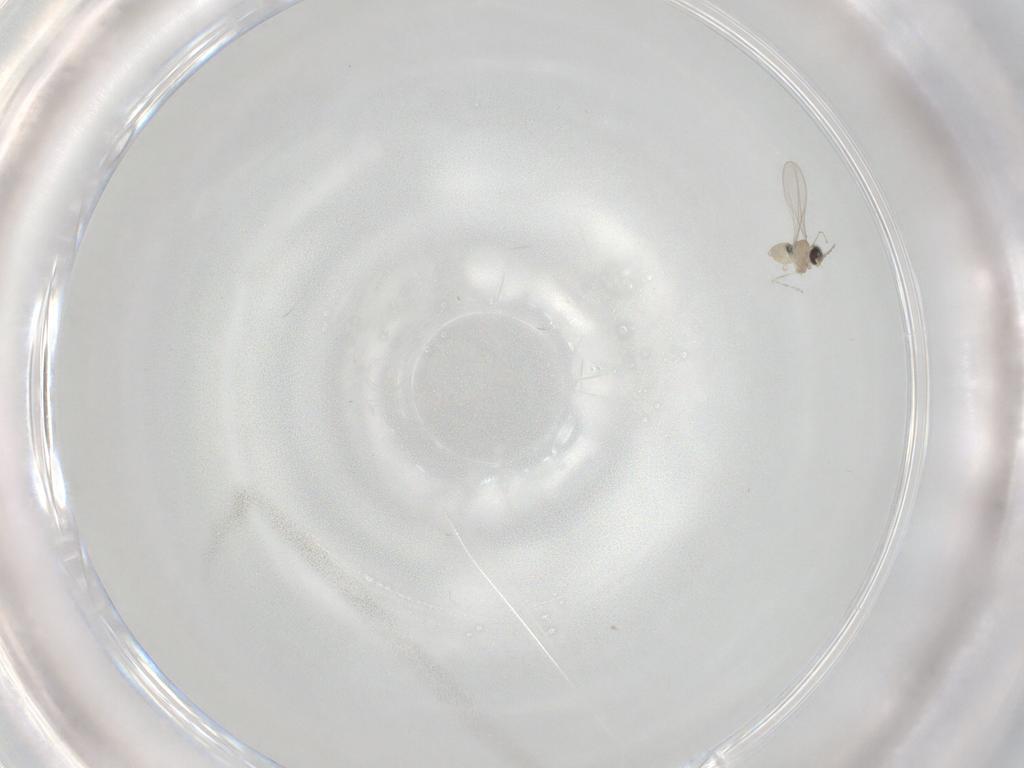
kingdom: Animalia
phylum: Arthropoda
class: Insecta
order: Diptera
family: Cecidomyiidae
